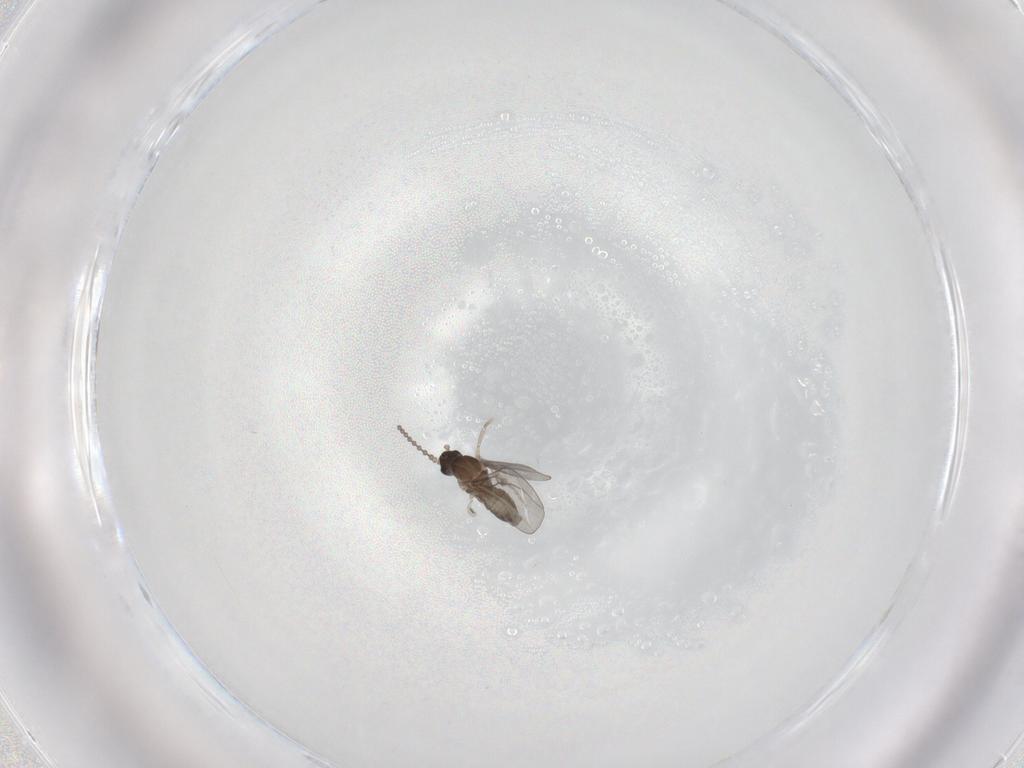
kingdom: Animalia
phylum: Arthropoda
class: Insecta
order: Diptera
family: Cecidomyiidae
